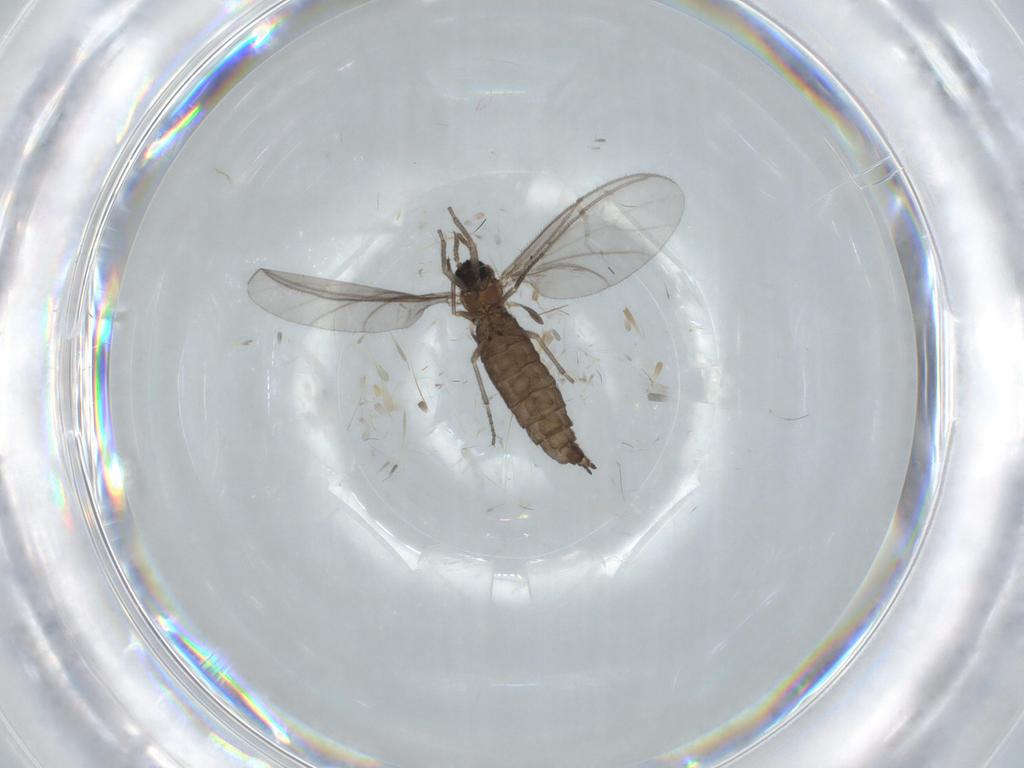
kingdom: Animalia
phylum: Arthropoda
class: Insecta
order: Diptera
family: Sciaridae
